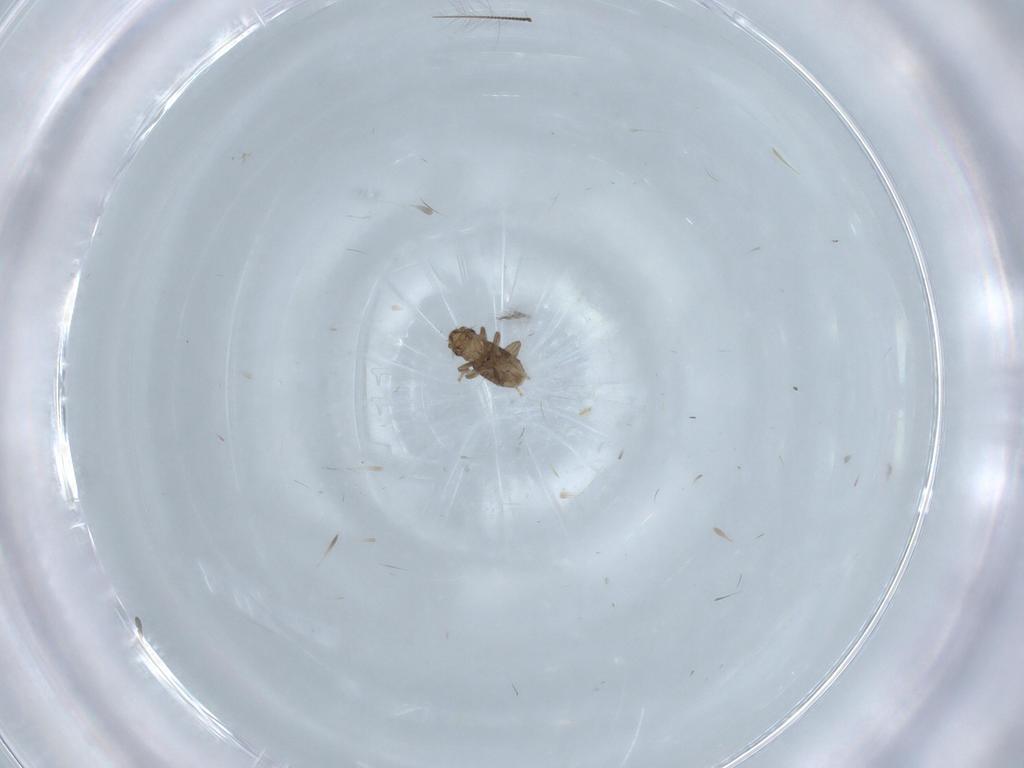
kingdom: Animalia
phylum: Arthropoda
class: Insecta
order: Diptera
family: Chironomidae
